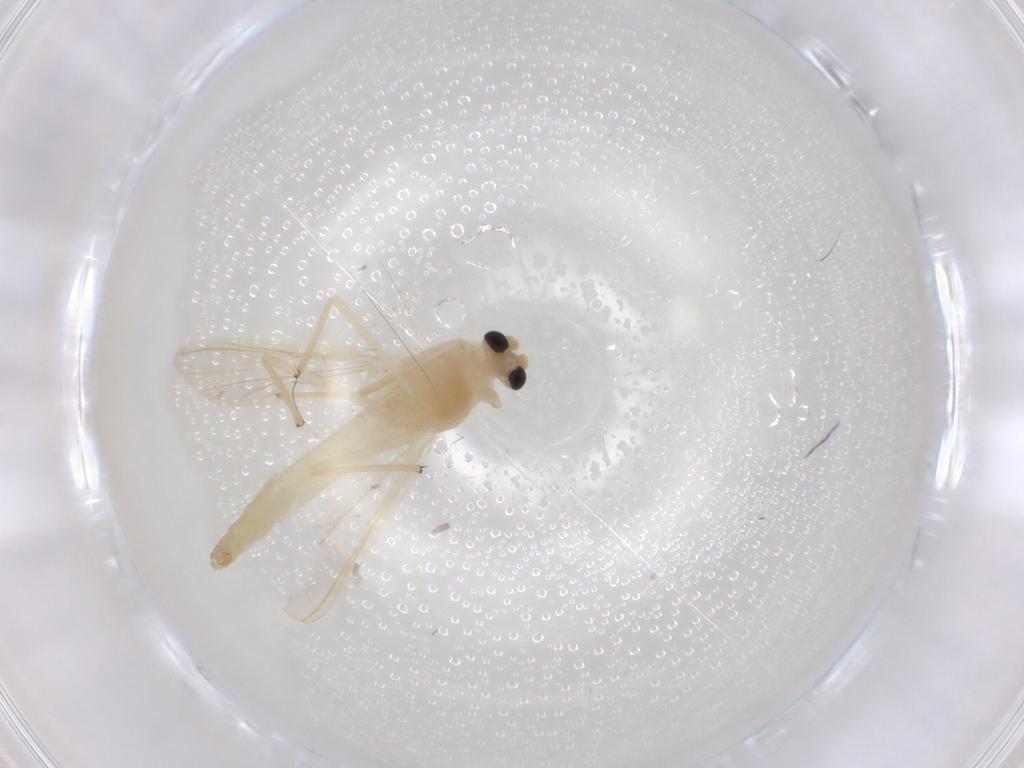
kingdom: Animalia
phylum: Arthropoda
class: Insecta
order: Diptera
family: Chironomidae
